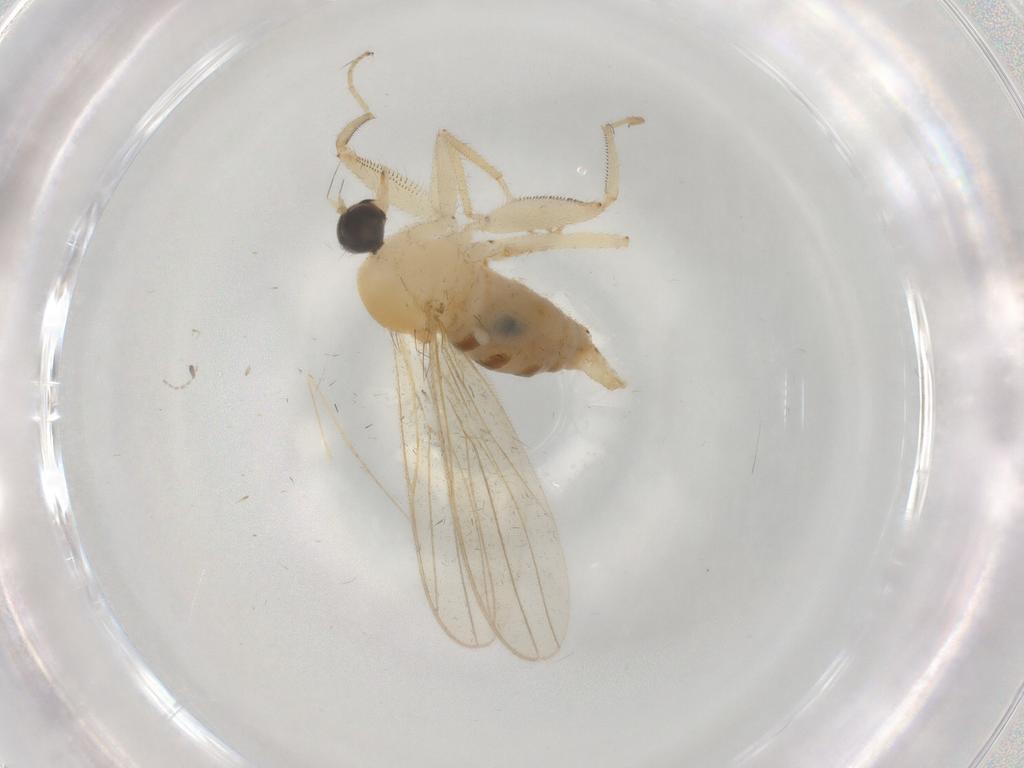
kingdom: Animalia
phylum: Arthropoda
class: Insecta
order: Diptera
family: Hybotidae
